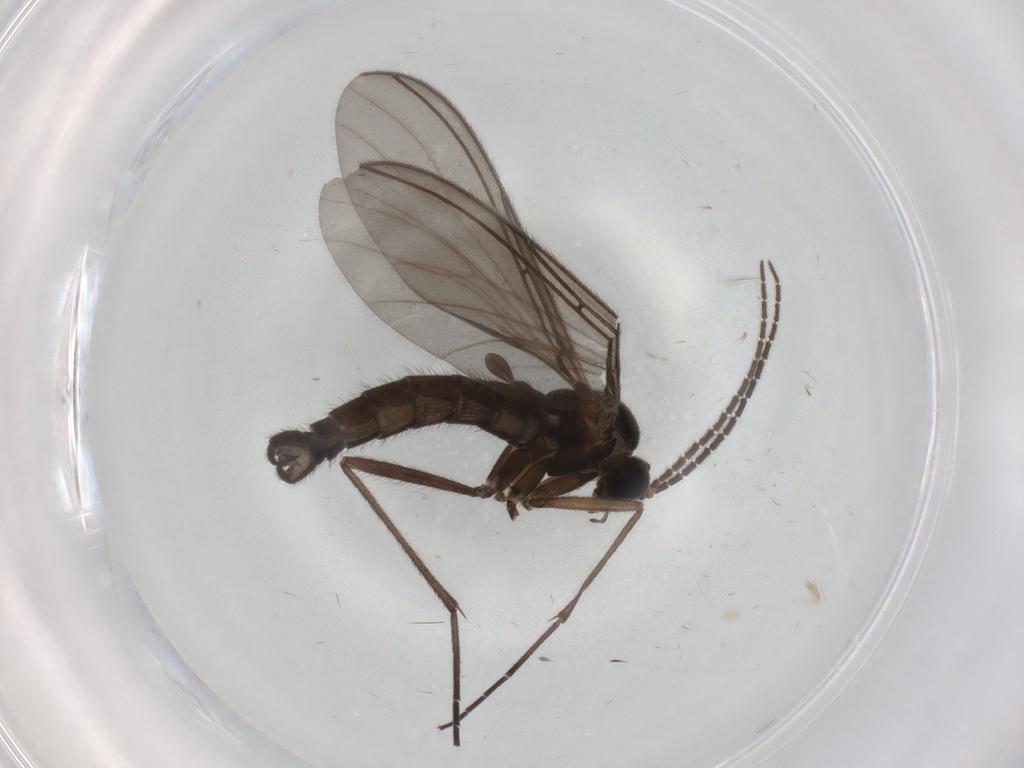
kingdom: Animalia
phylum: Arthropoda
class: Insecta
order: Diptera
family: Sciaridae
